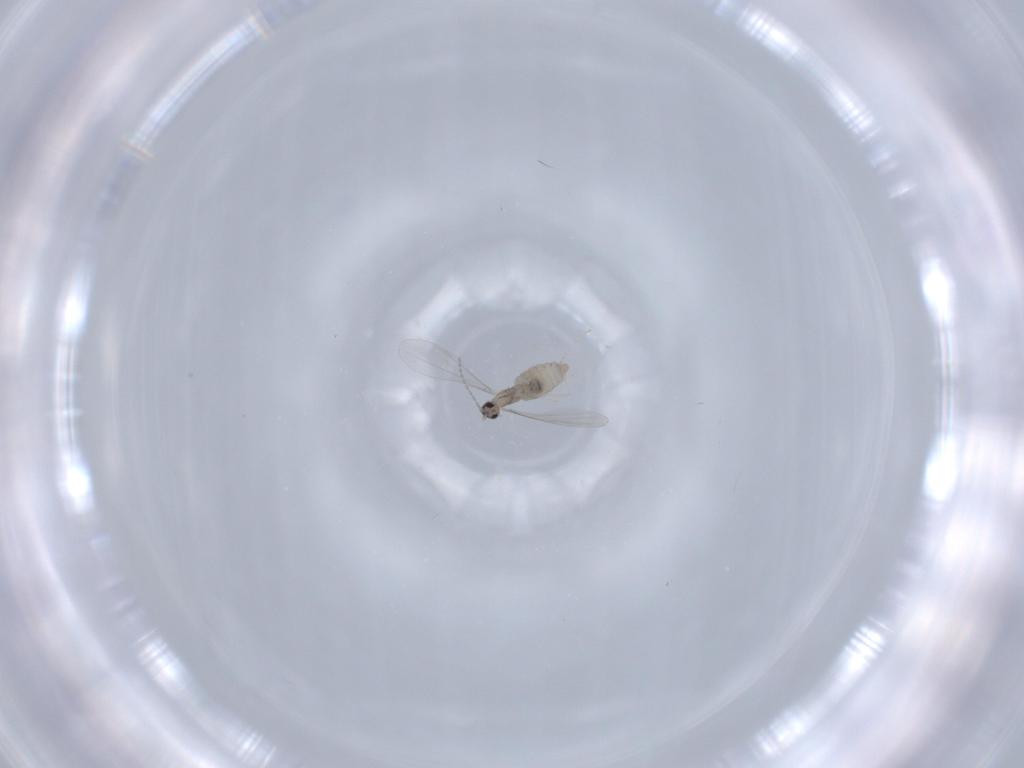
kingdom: Animalia
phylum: Arthropoda
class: Insecta
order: Diptera
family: Cecidomyiidae
